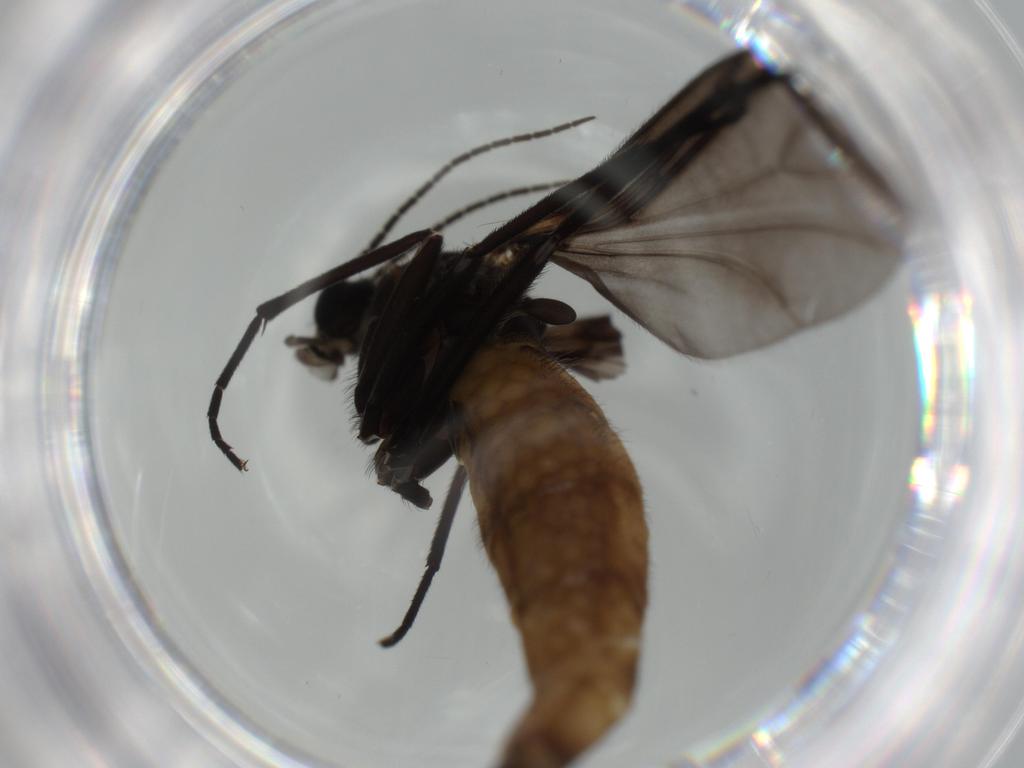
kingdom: Animalia
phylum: Arthropoda
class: Insecta
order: Diptera
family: Sciaridae
